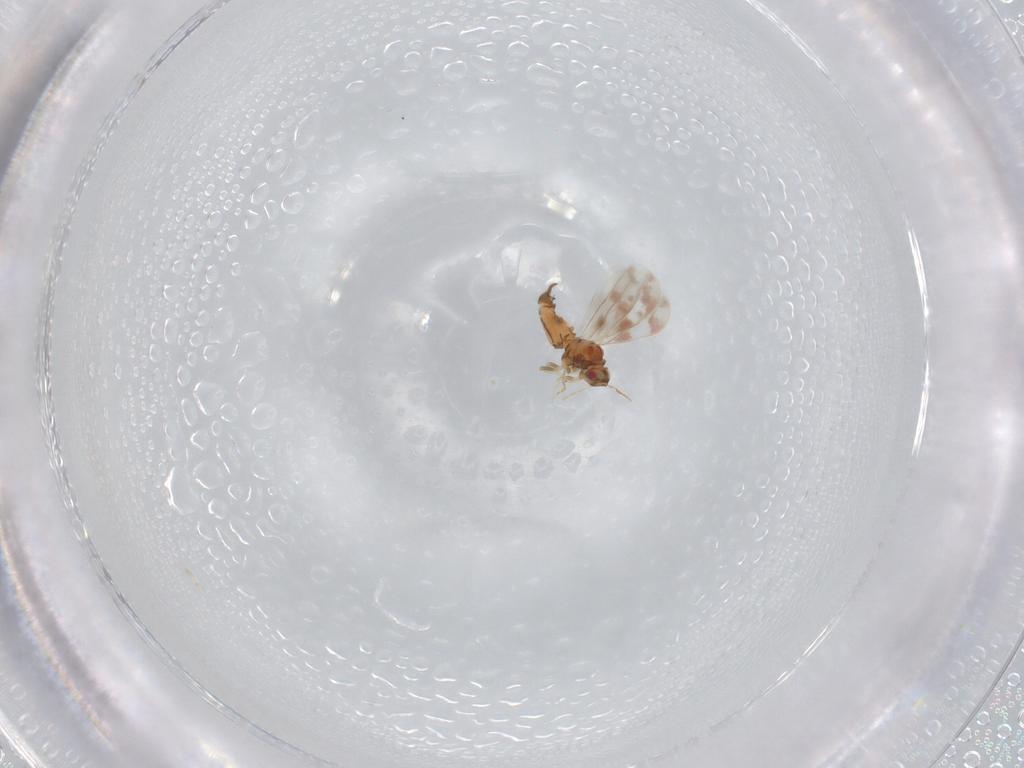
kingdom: Animalia
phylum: Arthropoda
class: Insecta
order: Hemiptera
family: Aleyrodidae
